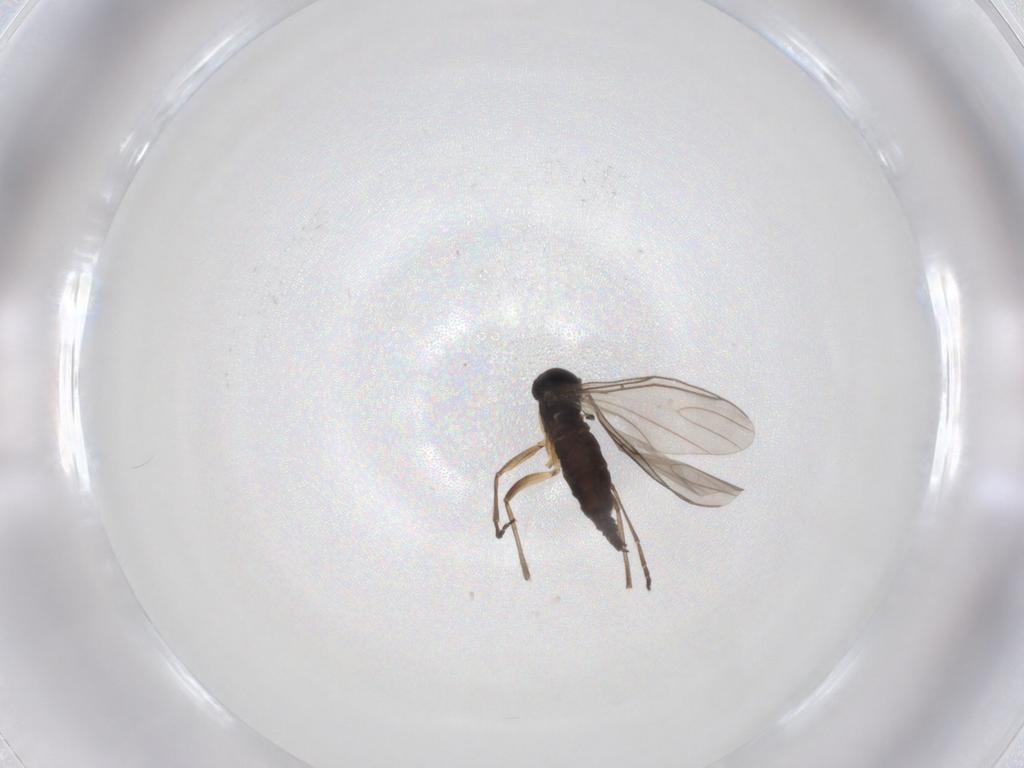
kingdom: Animalia
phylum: Arthropoda
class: Insecta
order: Diptera
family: Sciaridae
